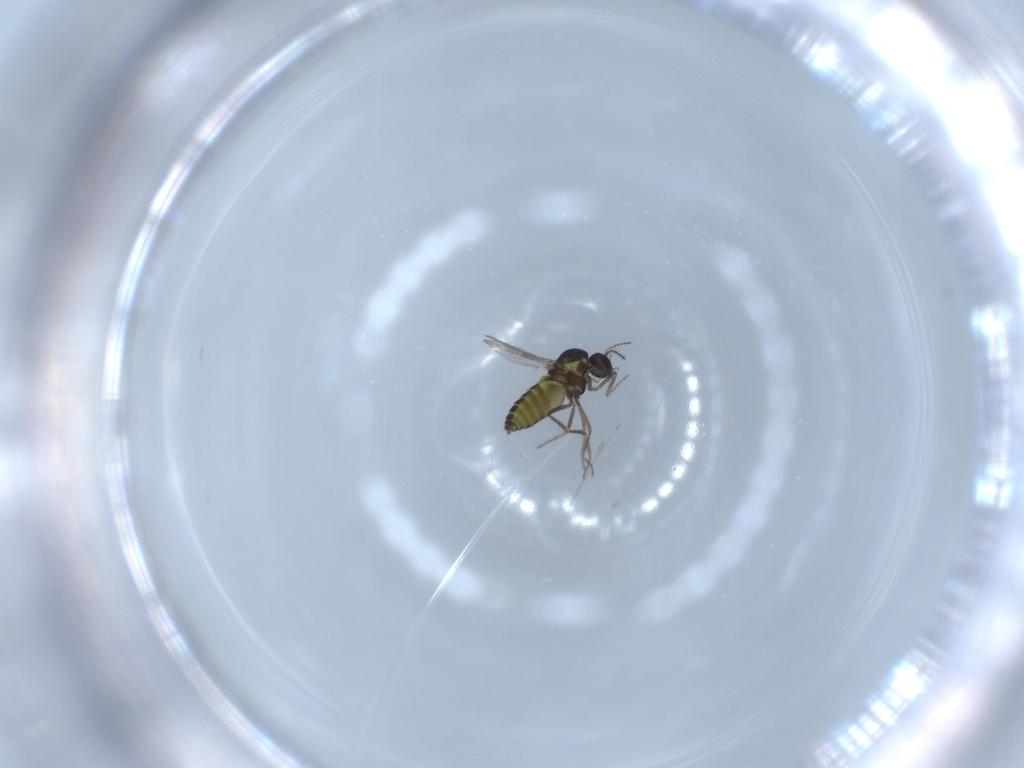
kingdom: Animalia
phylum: Arthropoda
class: Insecta
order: Diptera
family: Ceratopogonidae
